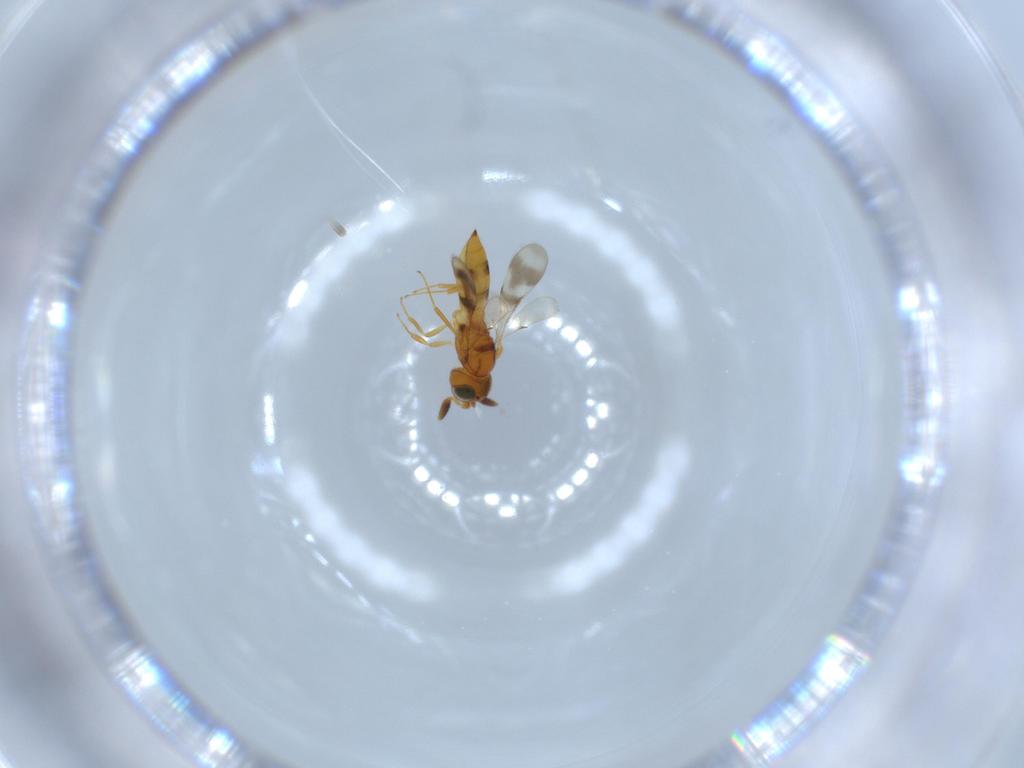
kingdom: Animalia
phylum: Arthropoda
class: Insecta
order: Hymenoptera
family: Scelionidae
